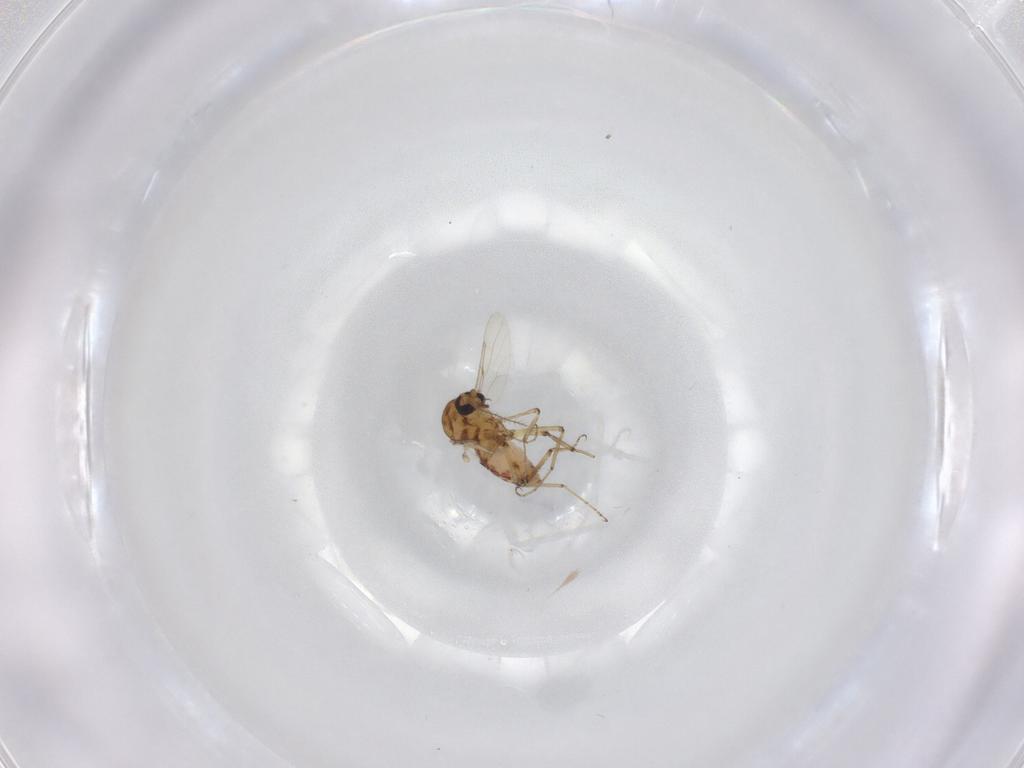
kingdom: Animalia
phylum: Arthropoda
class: Insecta
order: Diptera
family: Ceratopogonidae
